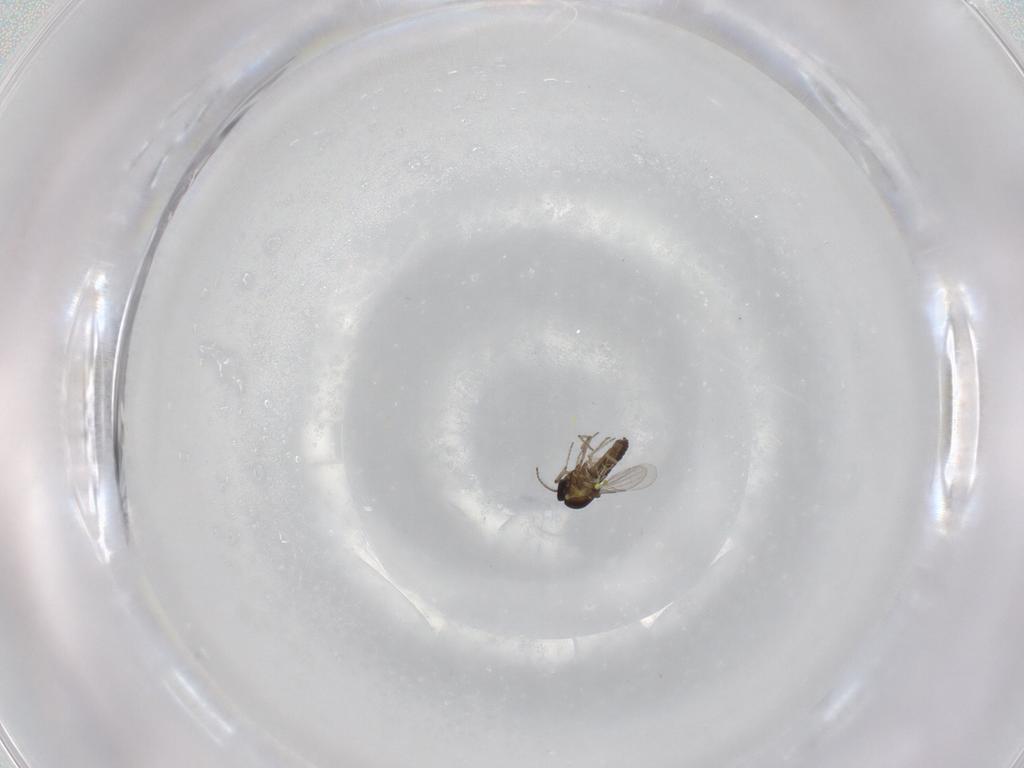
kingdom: Animalia
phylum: Arthropoda
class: Insecta
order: Diptera
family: Ceratopogonidae
